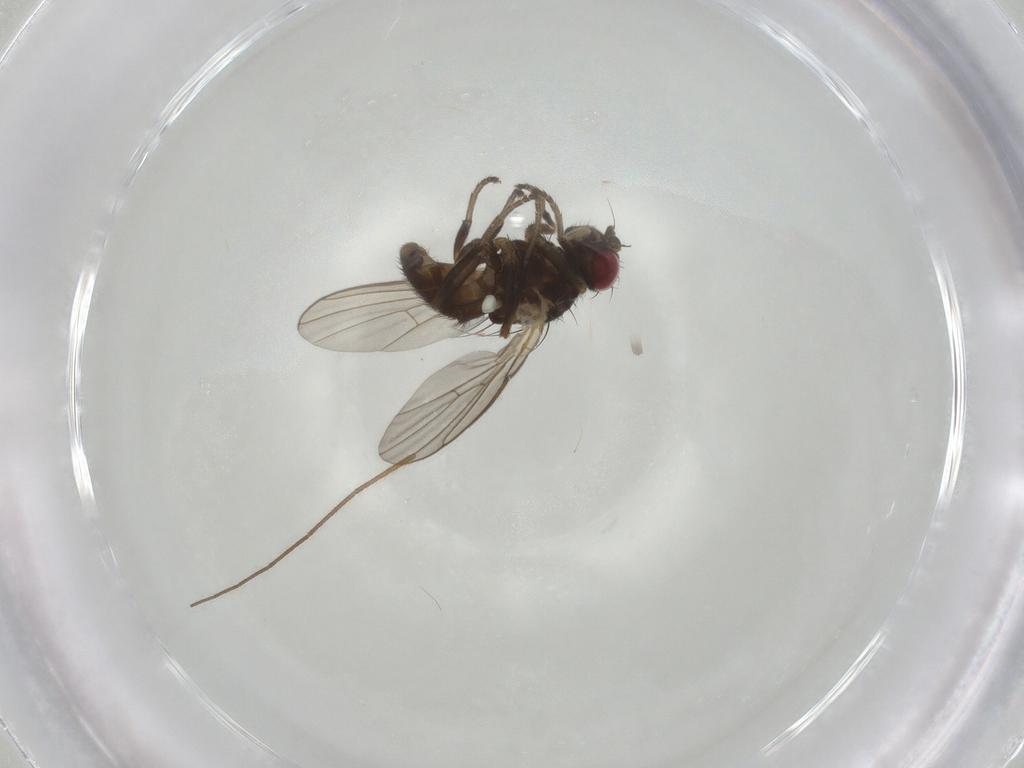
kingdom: Animalia
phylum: Arthropoda
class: Insecta
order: Diptera
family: Agromyzidae
